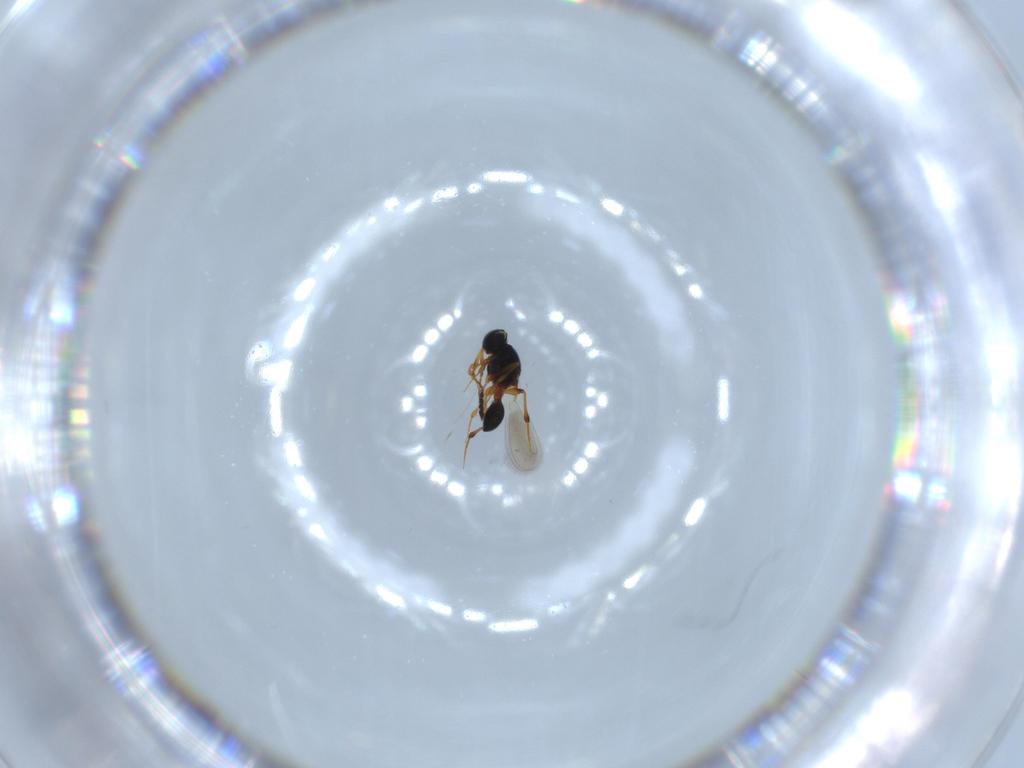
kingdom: Animalia
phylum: Arthropoda
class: Insecta
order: Hymenoptera
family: Platygastridae
